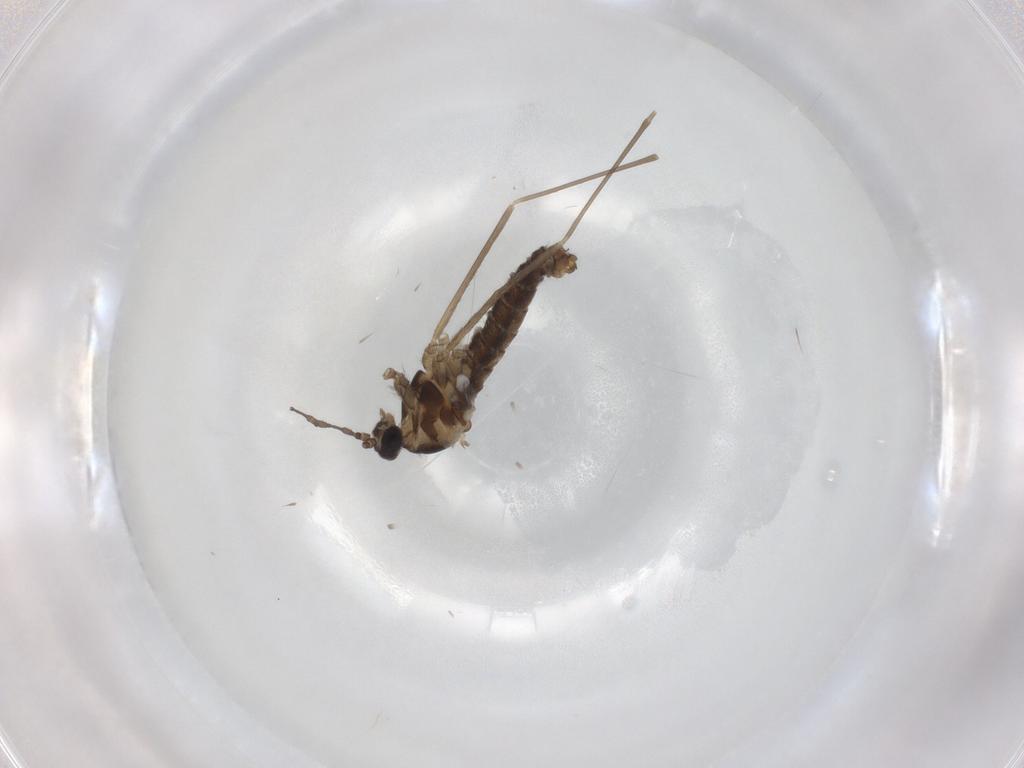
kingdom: Animalia
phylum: Arthropoda
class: Insecta
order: Diptera
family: Cecidomyiidae
